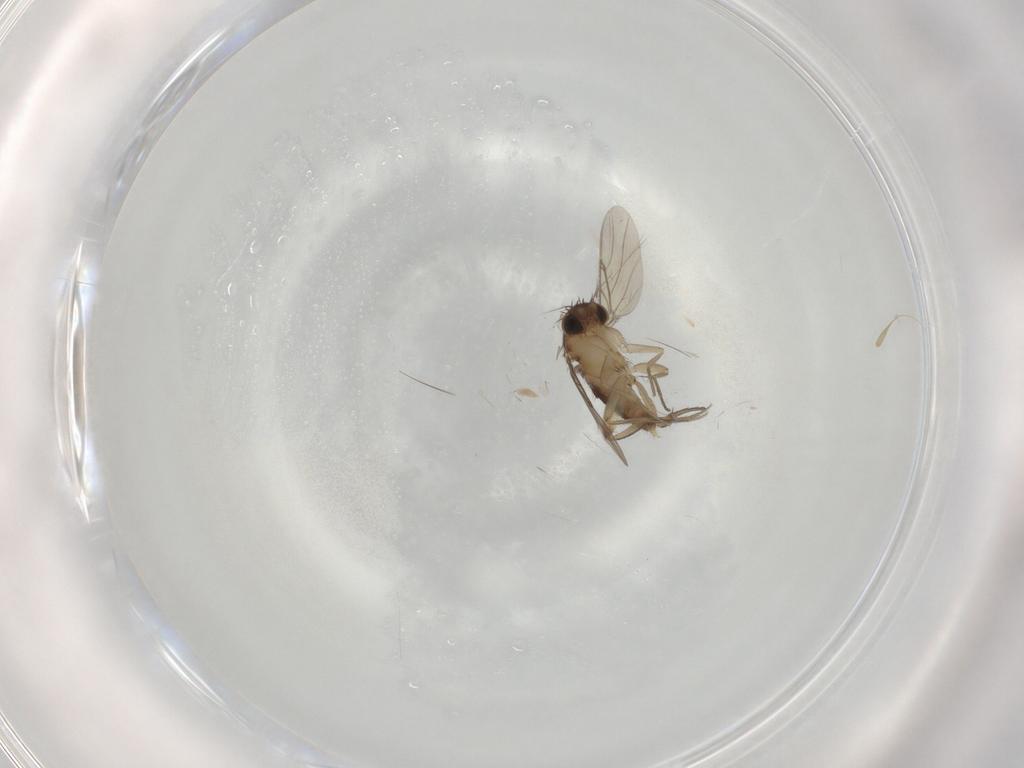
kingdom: Animalia
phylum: Arthropoda
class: Insecta
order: Diptera
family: Phoridae
